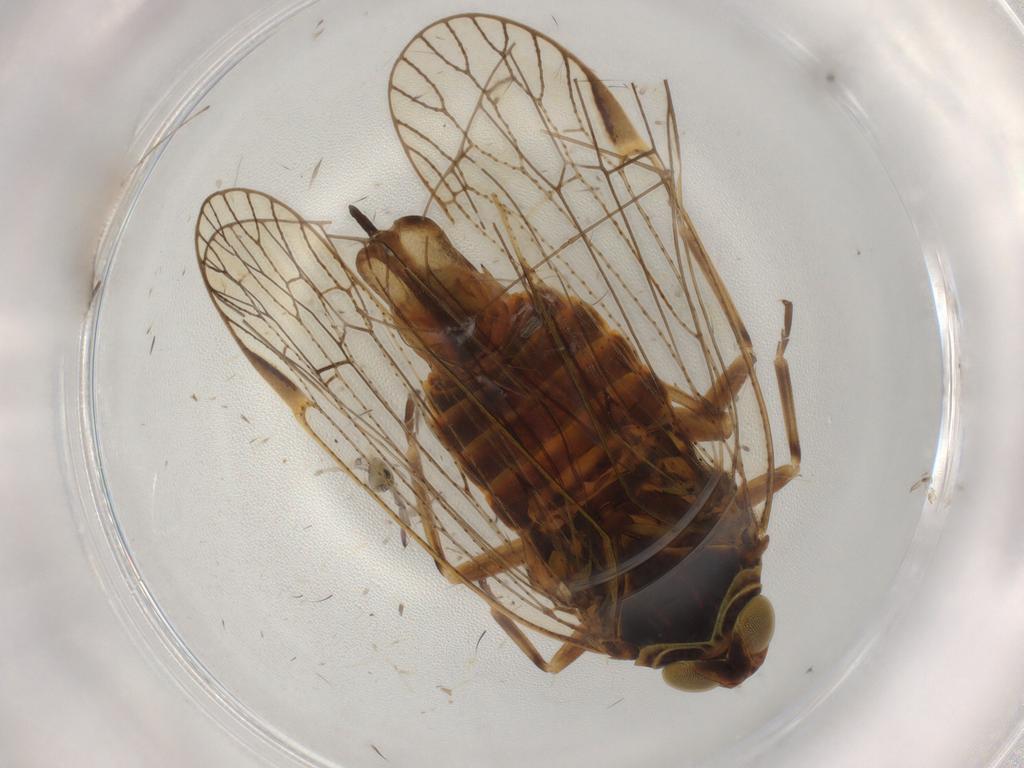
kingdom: Animalia
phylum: Arthropoda
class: Insecta
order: Hemiptera
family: Cixiidae
